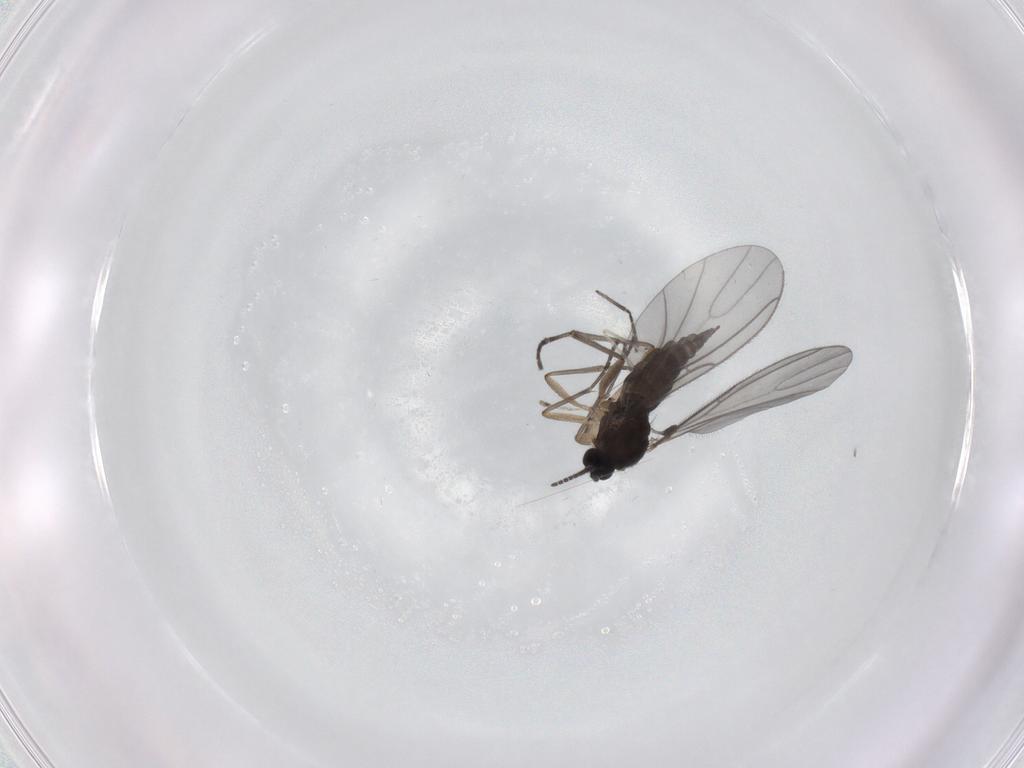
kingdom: Animalia
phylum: Arthropoda
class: Insecta
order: Diptera
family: Sciaridae
